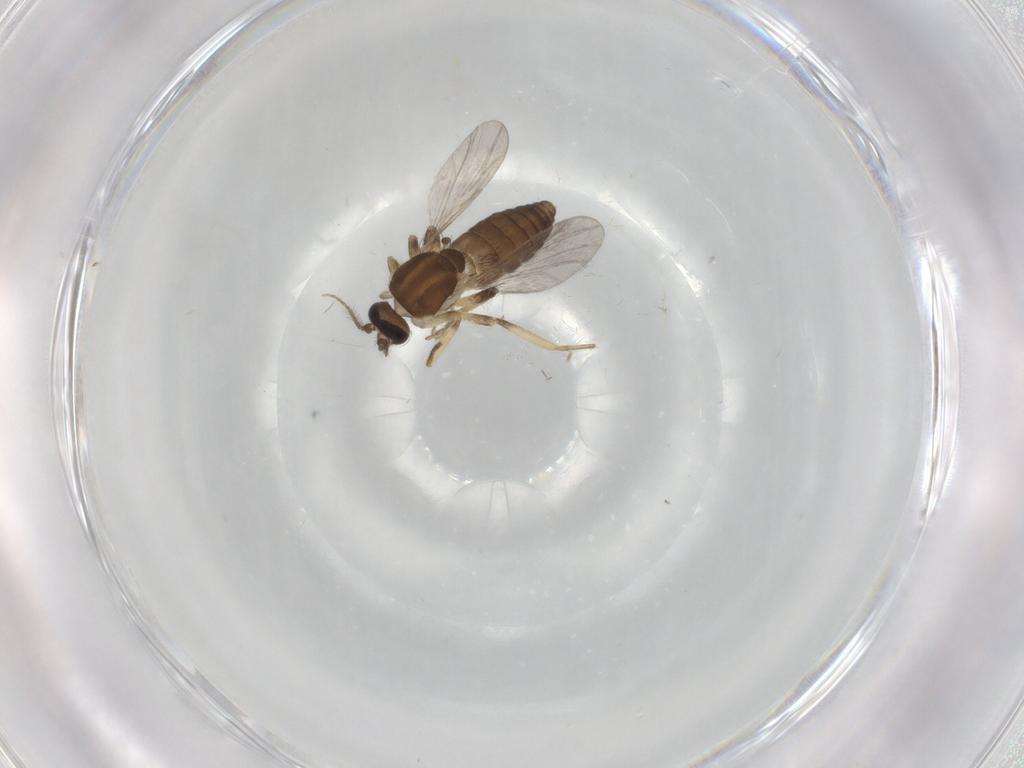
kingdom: Animalia
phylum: Arthropoda
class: Insecta
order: Diptera
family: Ceratopogonidae
